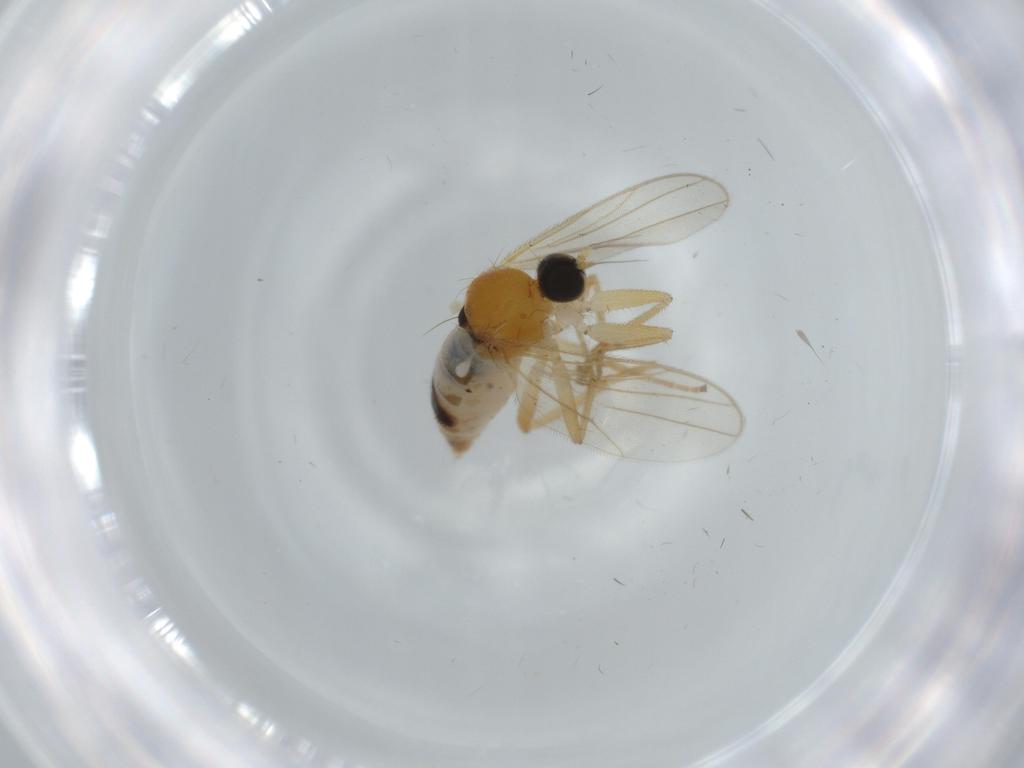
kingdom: Animalia
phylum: Arthropoda
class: Insecta
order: Diptera
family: Hybotidae
